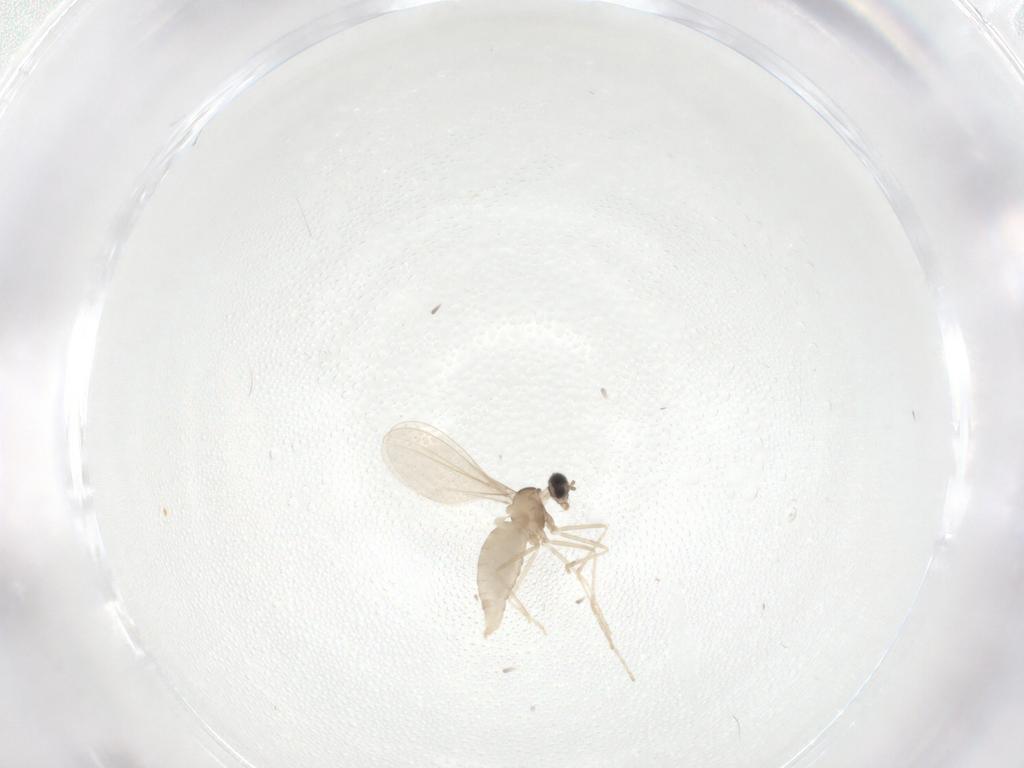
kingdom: Animalia
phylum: Arthropoda
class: Insecta
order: Diptera
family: Cecidomyiidae
